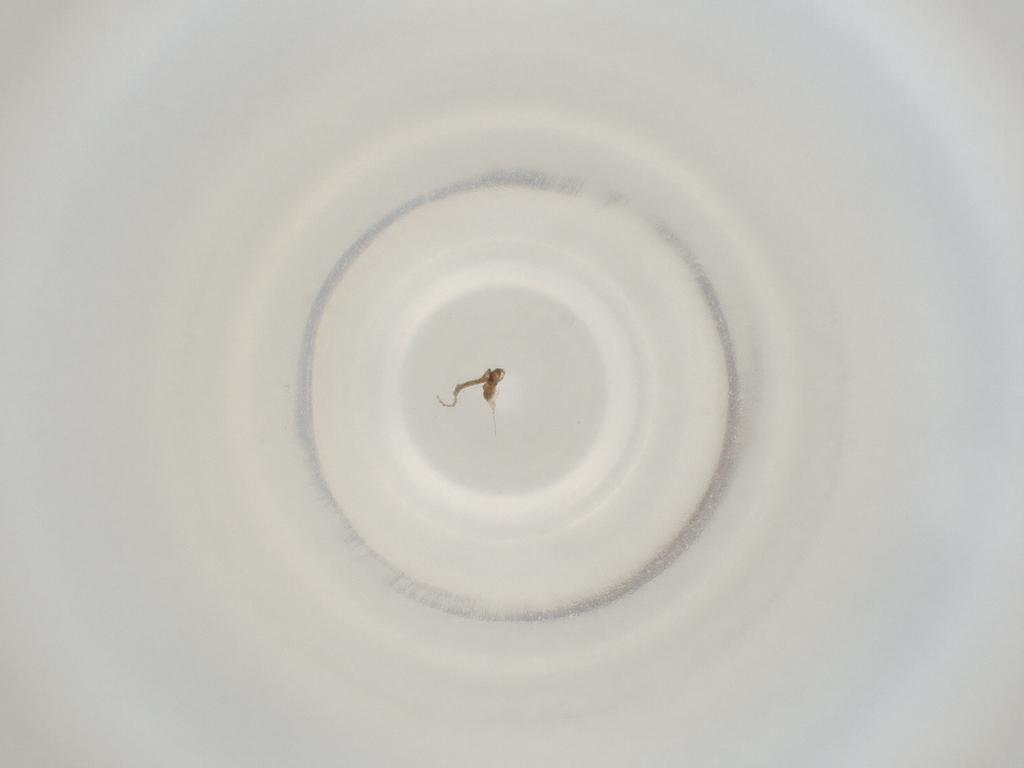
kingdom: Animalia
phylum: Arthropoda
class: Insecta
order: Diptera
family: Cecidomyiidae
